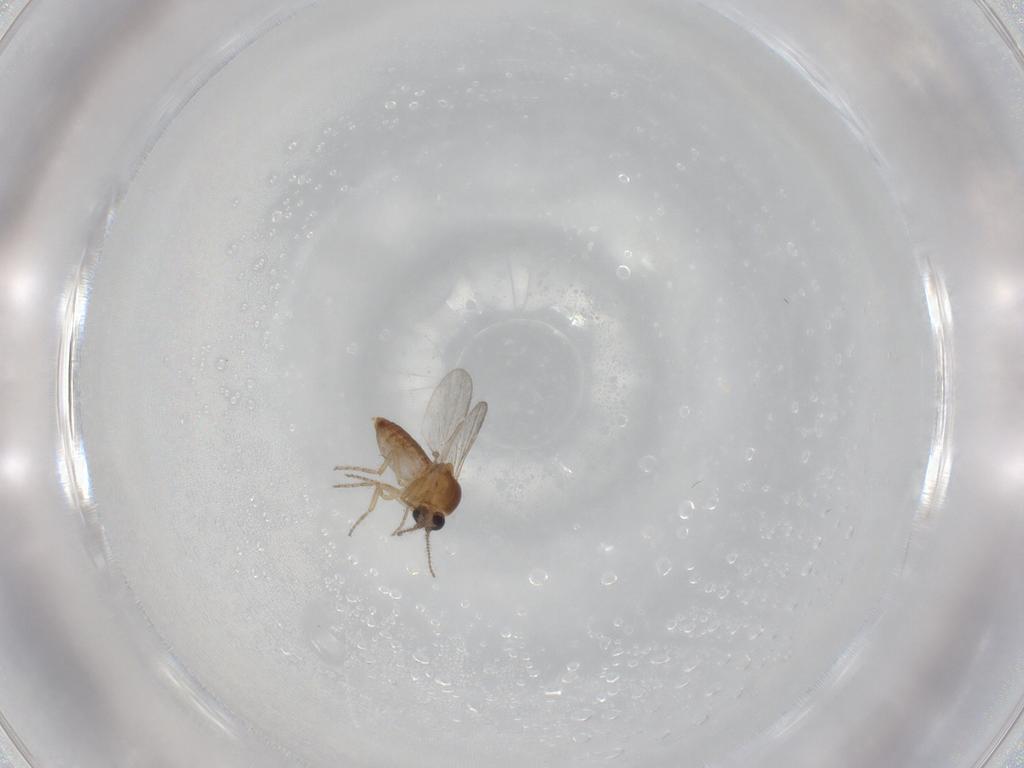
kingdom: Animalia
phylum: Arthropoda
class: Insecta
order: Diptera
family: Ceratopogonidae
